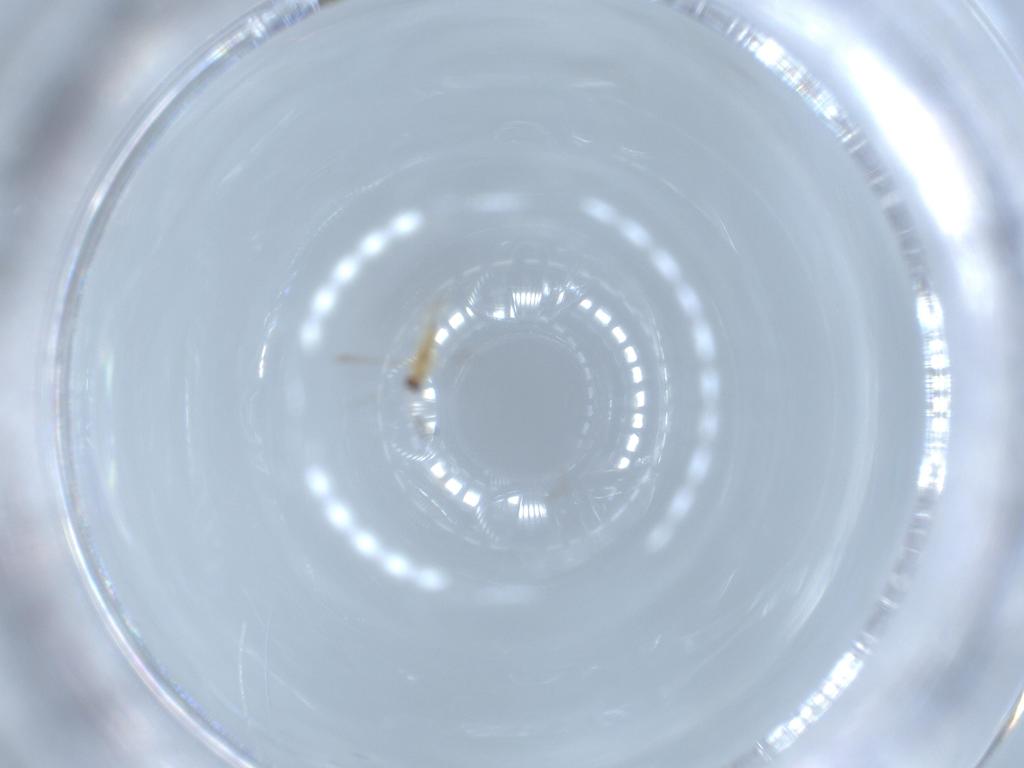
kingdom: Animalia
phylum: Arthropoda
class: Insecta
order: Hymenoptera
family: Mymaridae
